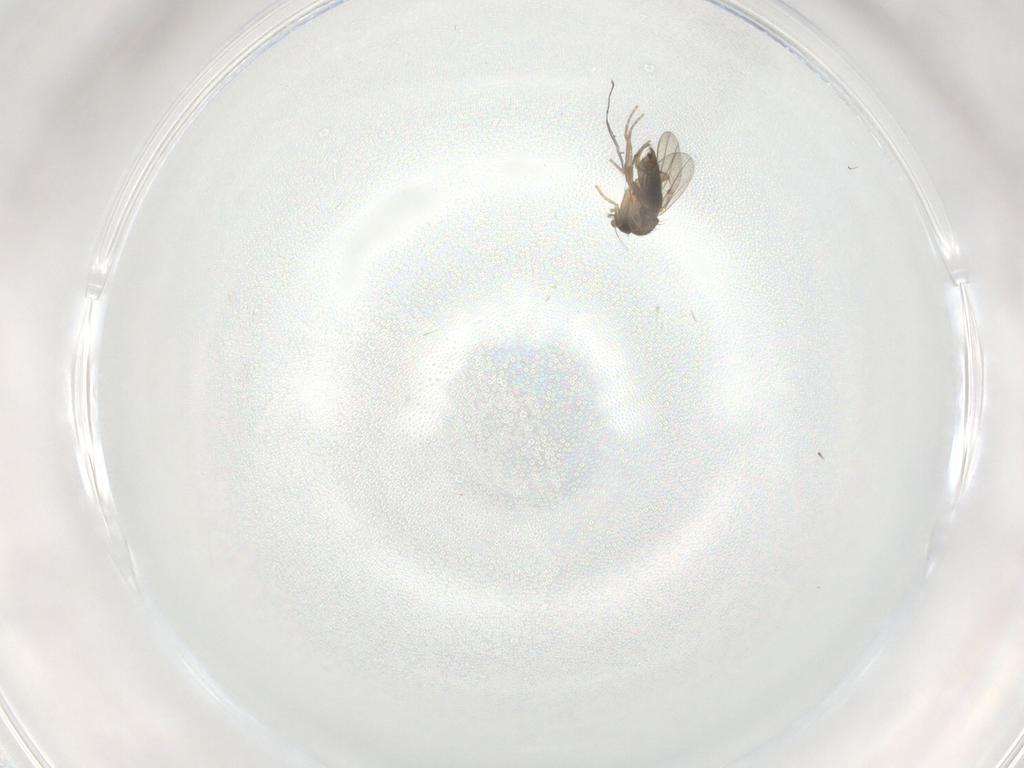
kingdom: Animalia
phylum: Arthropoda
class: Insecta
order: Diptera
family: Phoridae
